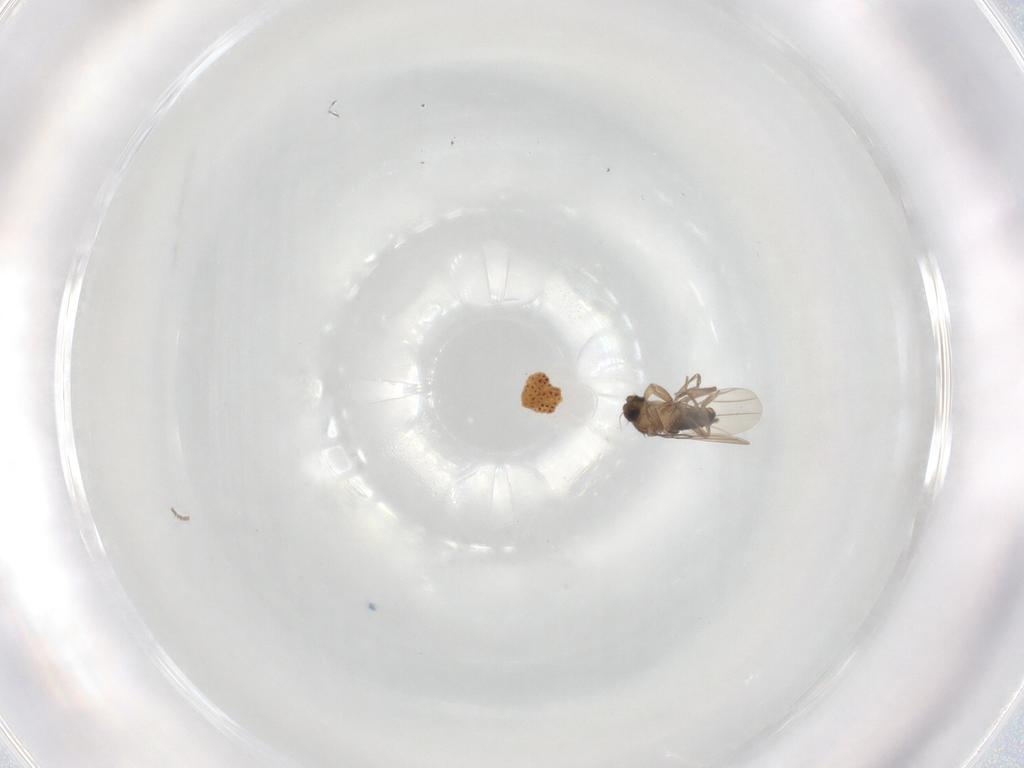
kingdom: Animalia
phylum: Arthropoda
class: Insecta
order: Diptera
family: Phoridae
